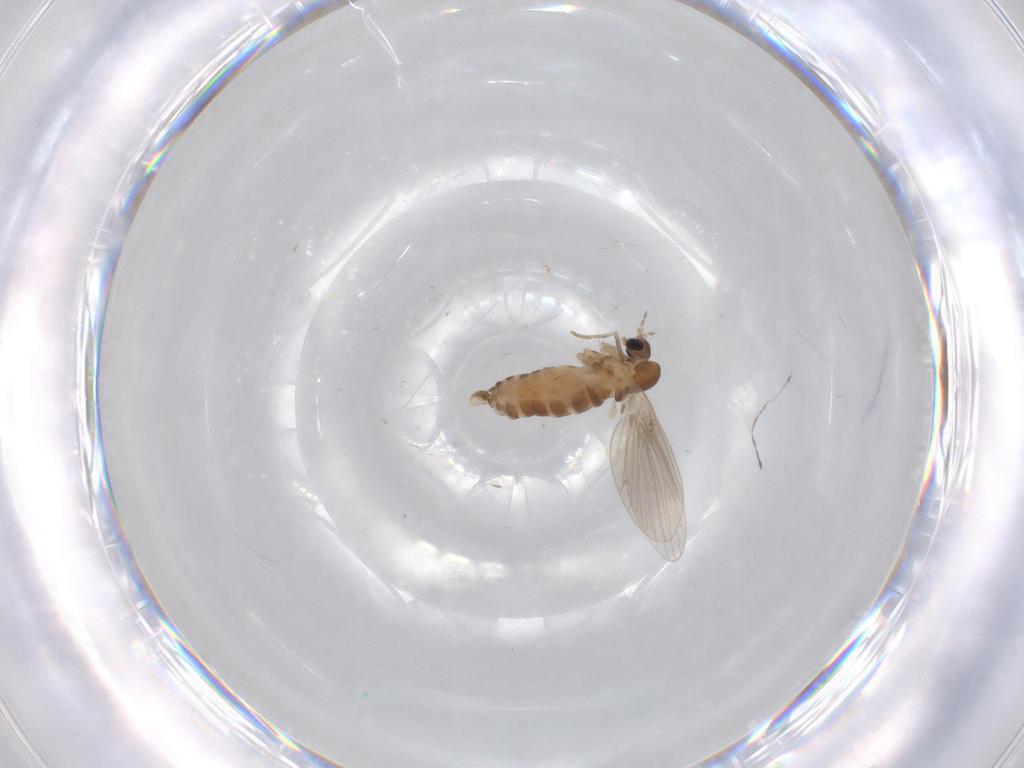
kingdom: Animalia
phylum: Arthropoda
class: Insecta
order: Diptera
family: Psychodidae
